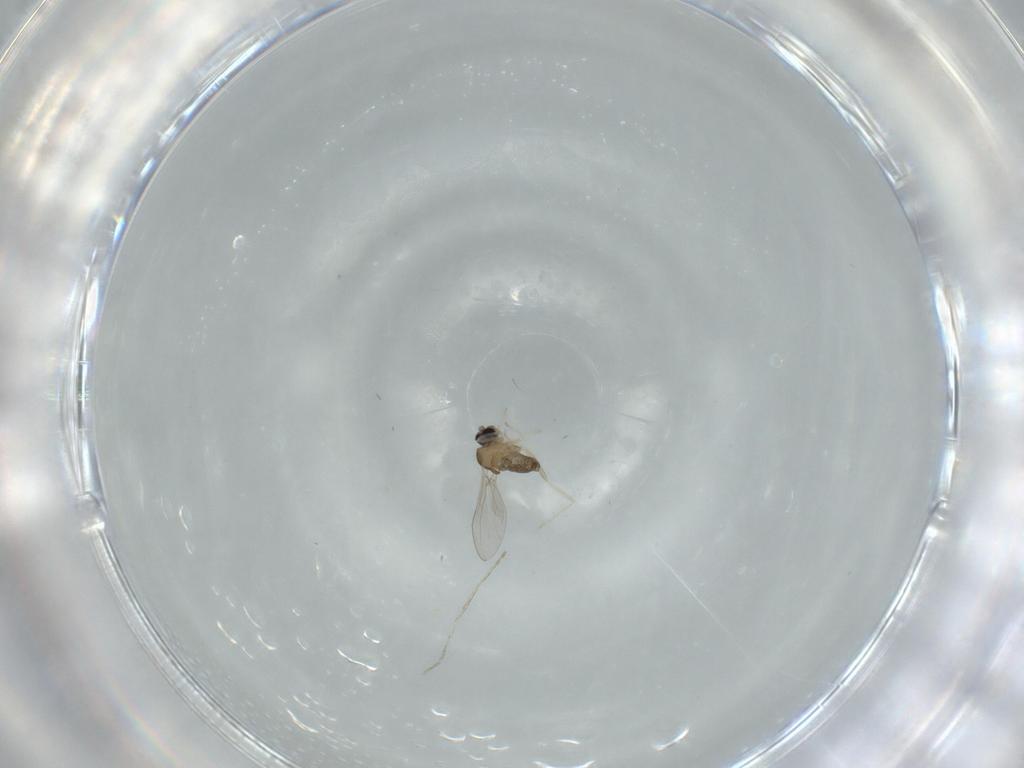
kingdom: Animalia
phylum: Arthropoda
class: Insecta
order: Diptera
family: Cecidomyiidae
